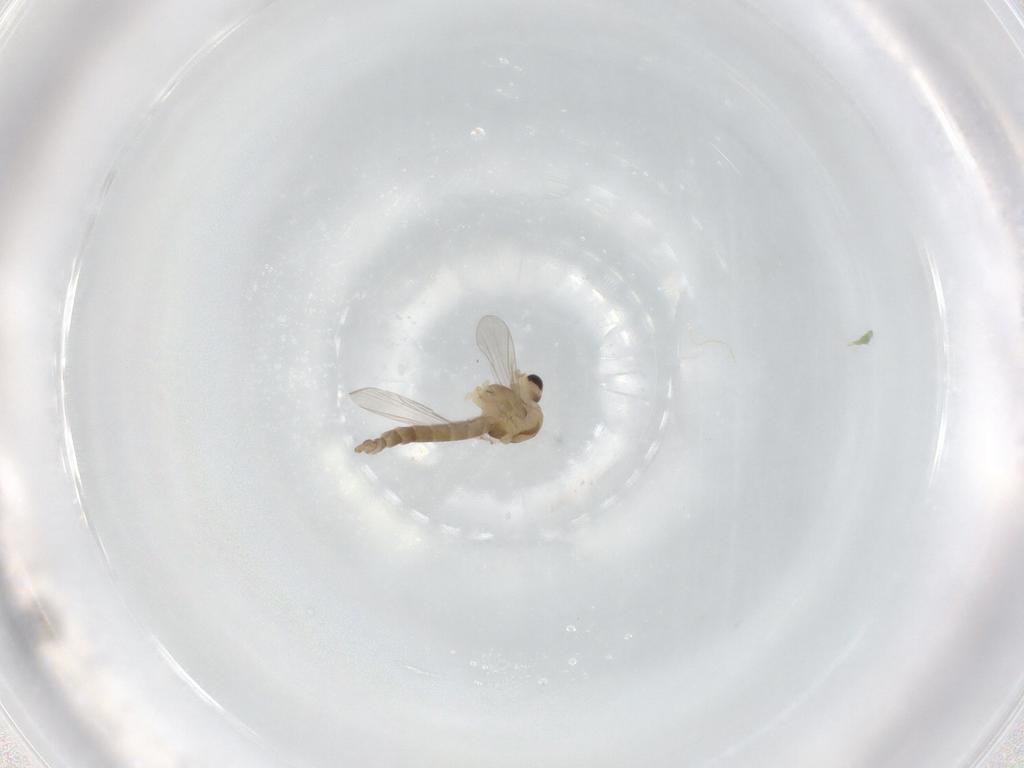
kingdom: Animalia
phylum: Arthropoda
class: Insecta
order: Diptera
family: Chironomidae
